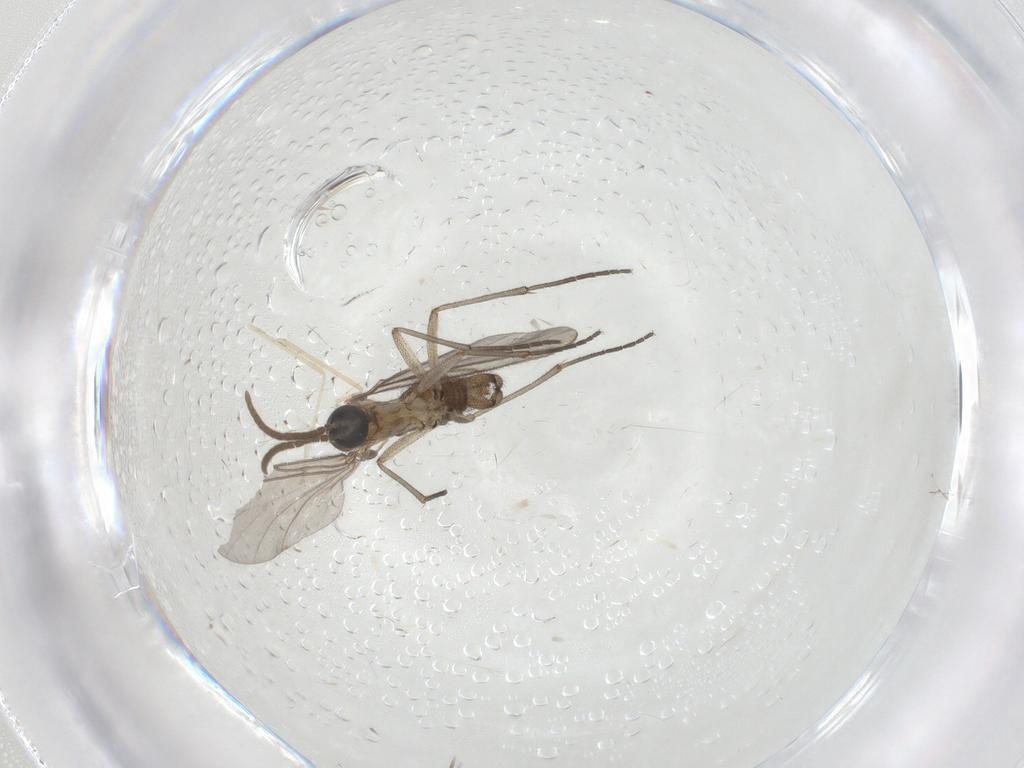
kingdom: Animalia
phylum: Arthropoda
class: Insecta
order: Diptera
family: Cecidomyiidae
